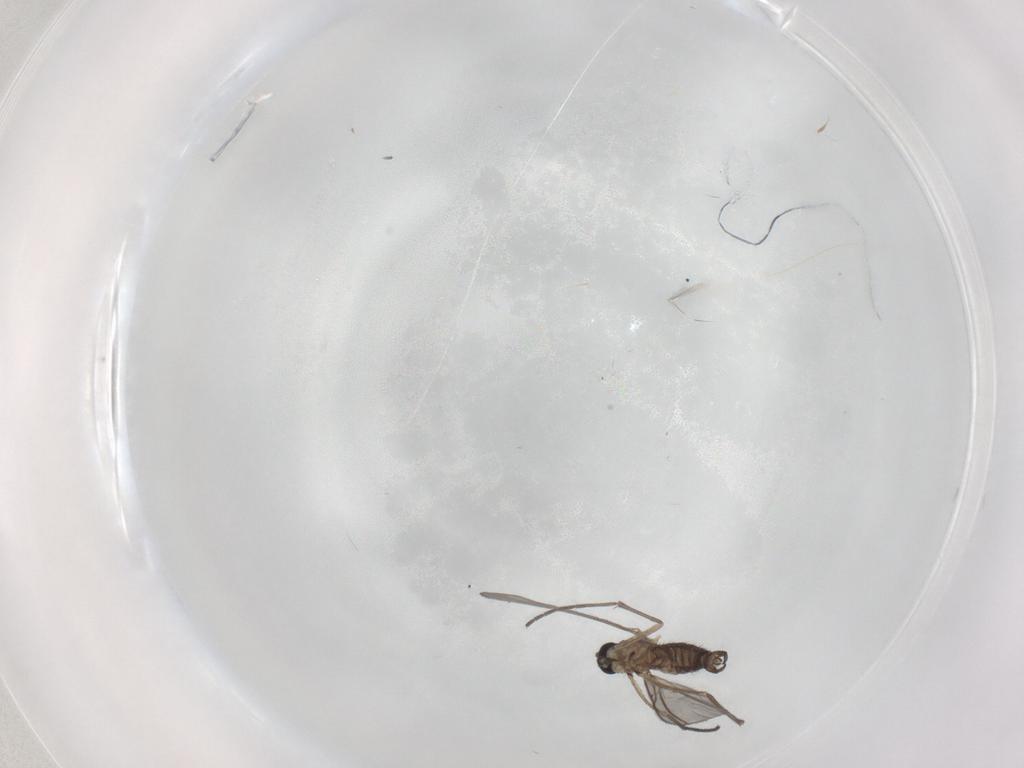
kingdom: Animalia
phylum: Arthropoda
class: Insecta
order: Diptera
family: Sciaridae
